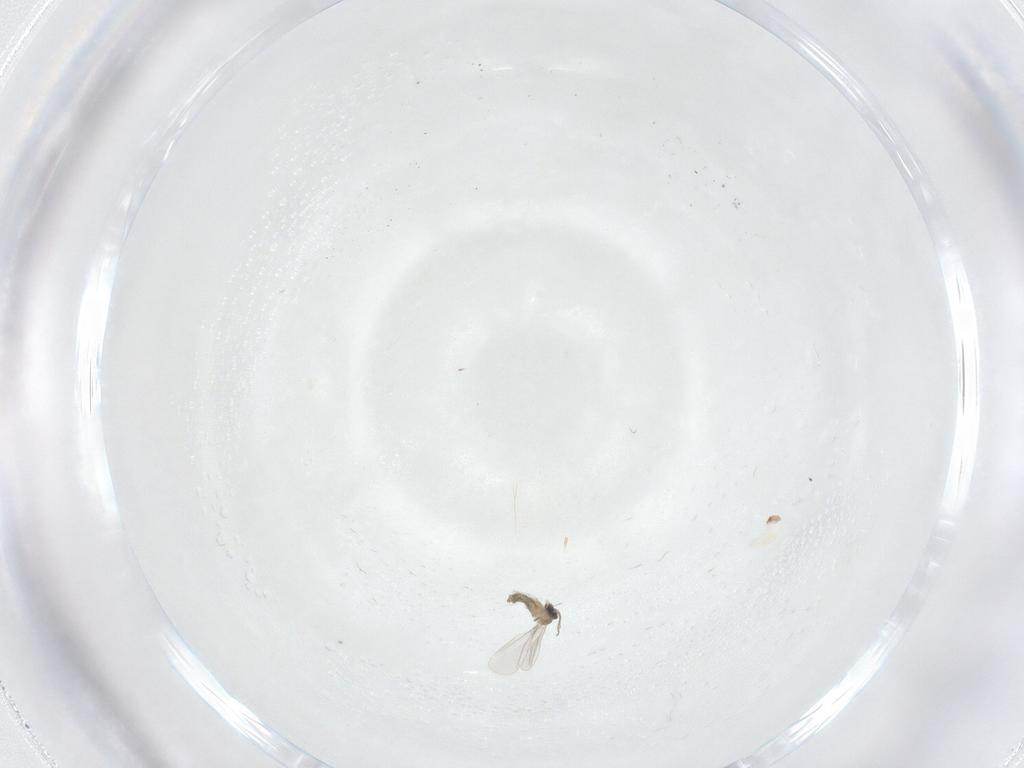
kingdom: Animalia
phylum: Arthropoda
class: Insecta
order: Diptera
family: Cecidomyiidae
